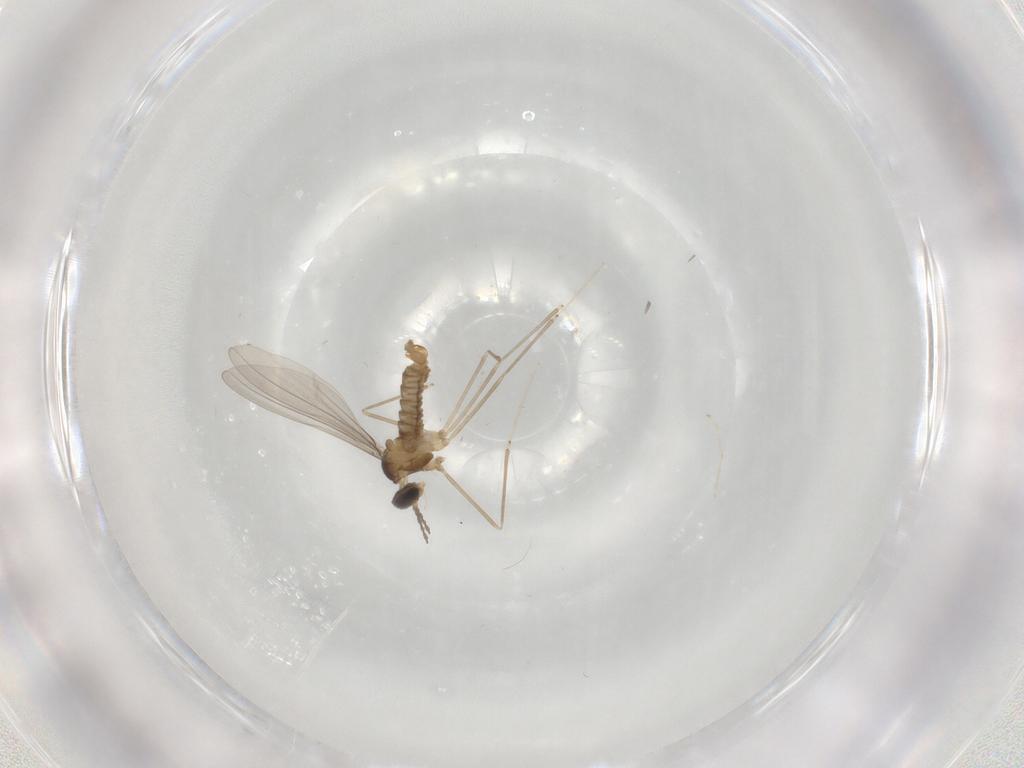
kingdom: Animalia
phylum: Arthropoda
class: Insecta
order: Diptera
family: Cecidomyiidae
